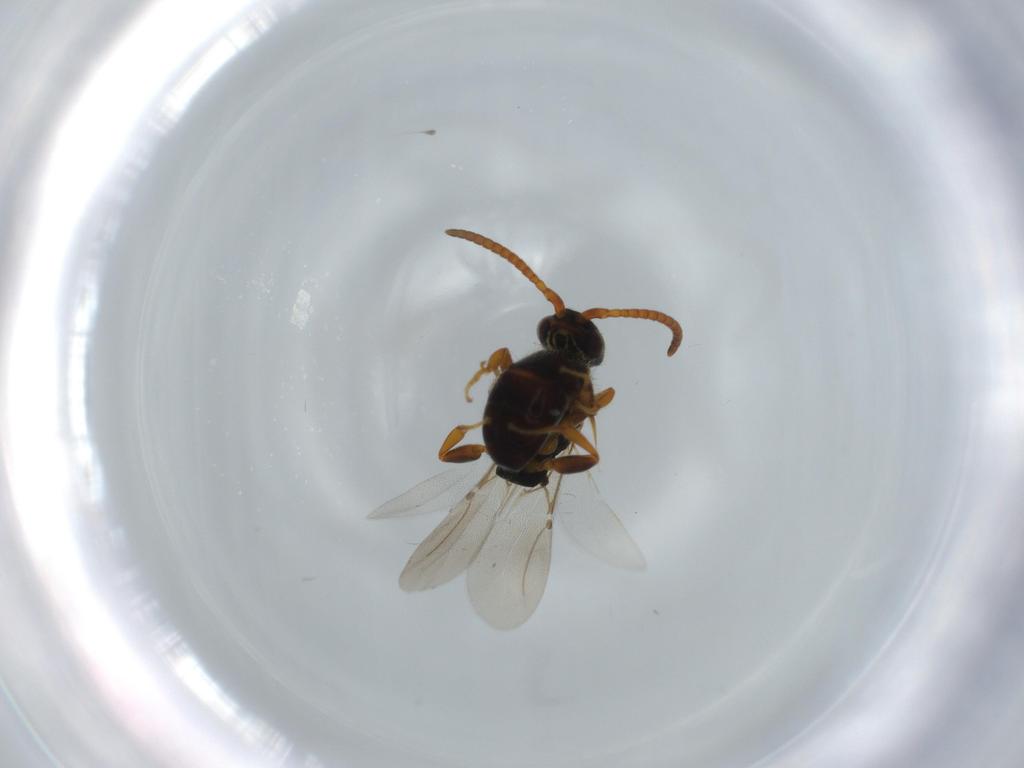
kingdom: Animalia
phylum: Arthropoda
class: Insecta
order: Hymenoptera
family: Bethylidae
